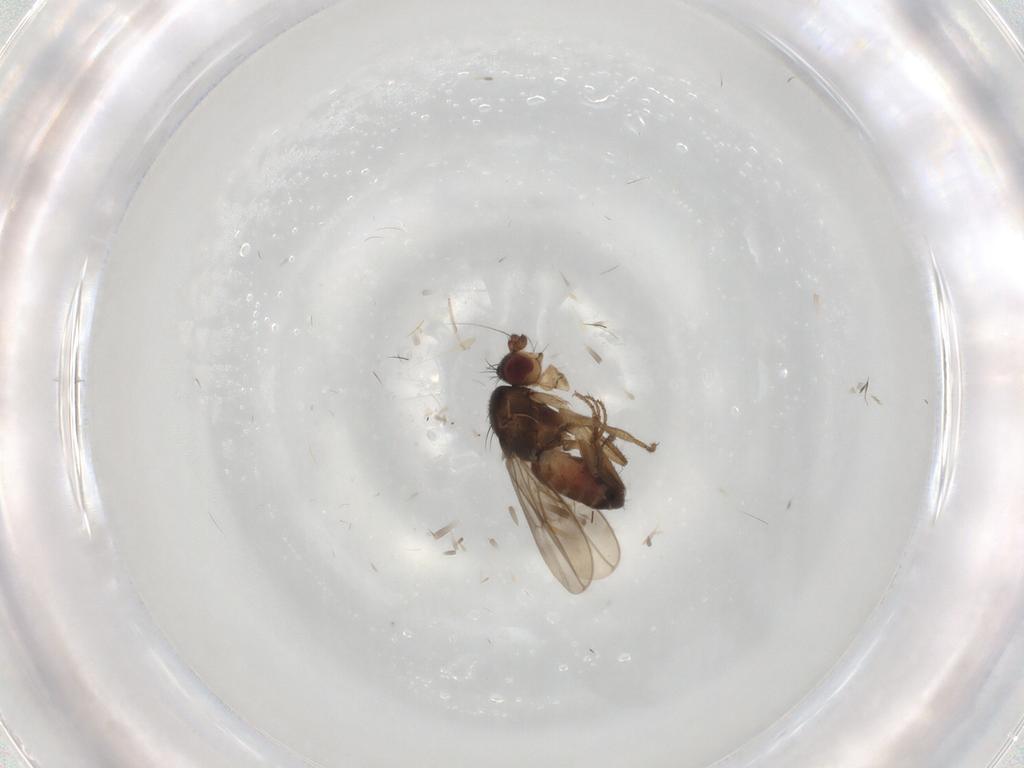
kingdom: Animalia
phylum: Arthropoda
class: Insecta
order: Diptera
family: Sphaeroceridae
